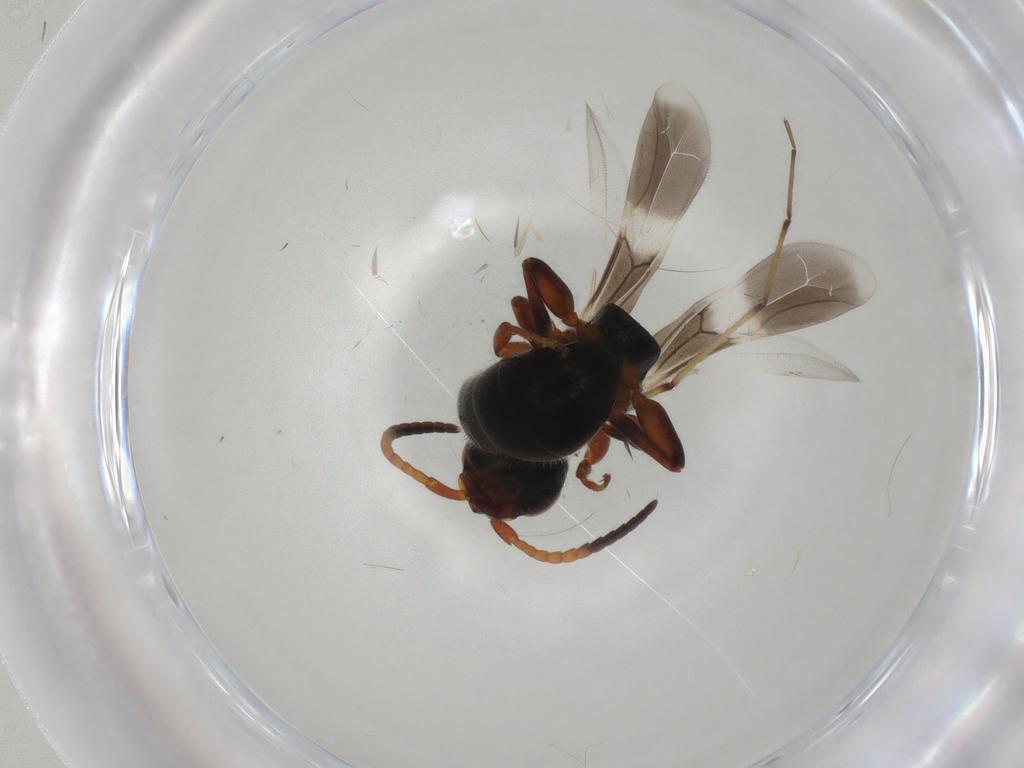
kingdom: Animalia
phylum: Arthropoda
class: Insecta
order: Hymenoptera
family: Bethylidae
